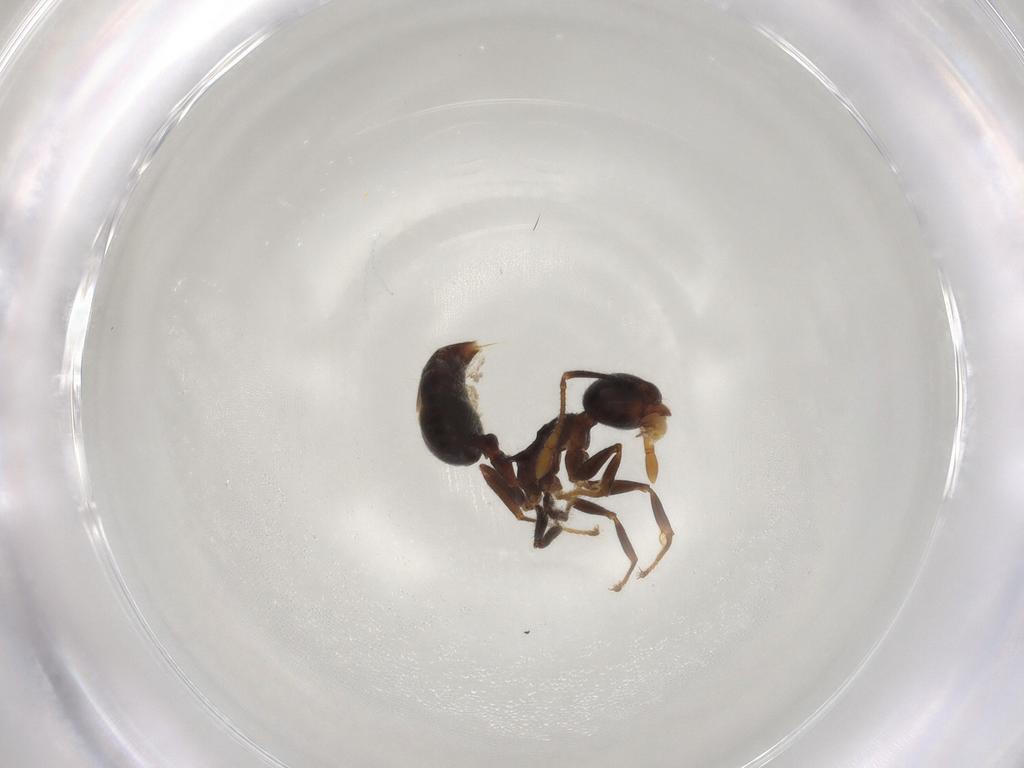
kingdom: Animalia
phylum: Arthropoda
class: Insecta
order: Hymenoptera
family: Formicidae
